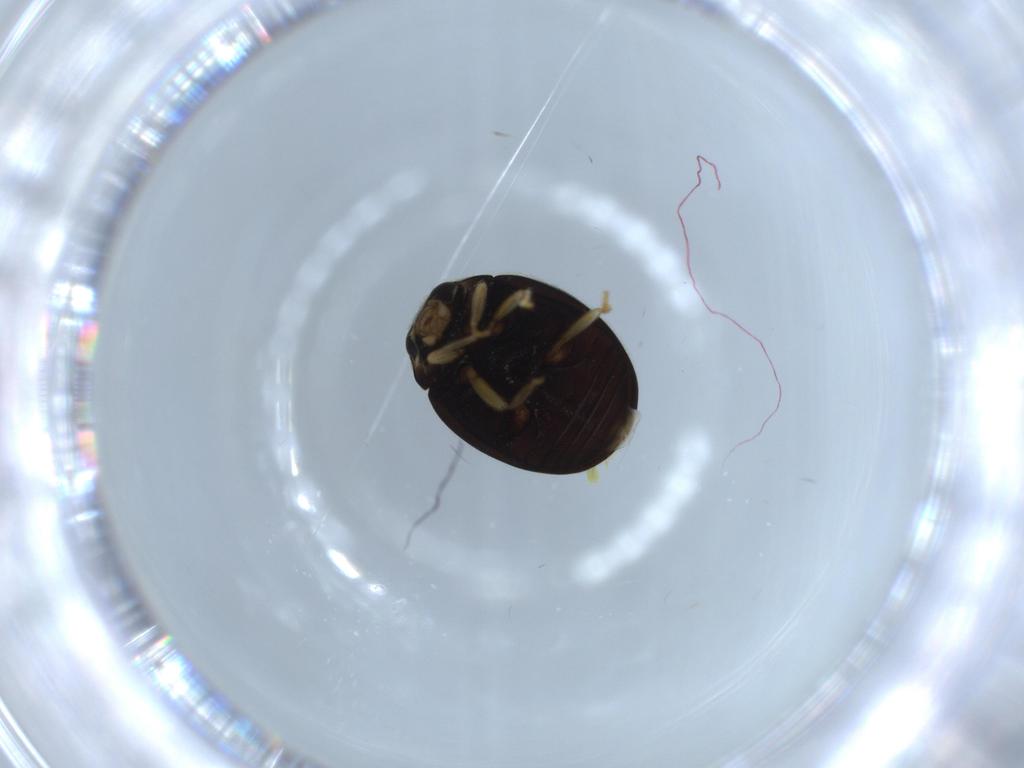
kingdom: Animalia
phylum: Arthropoda
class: Insecta
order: Coleoptera
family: Coccinellidae
